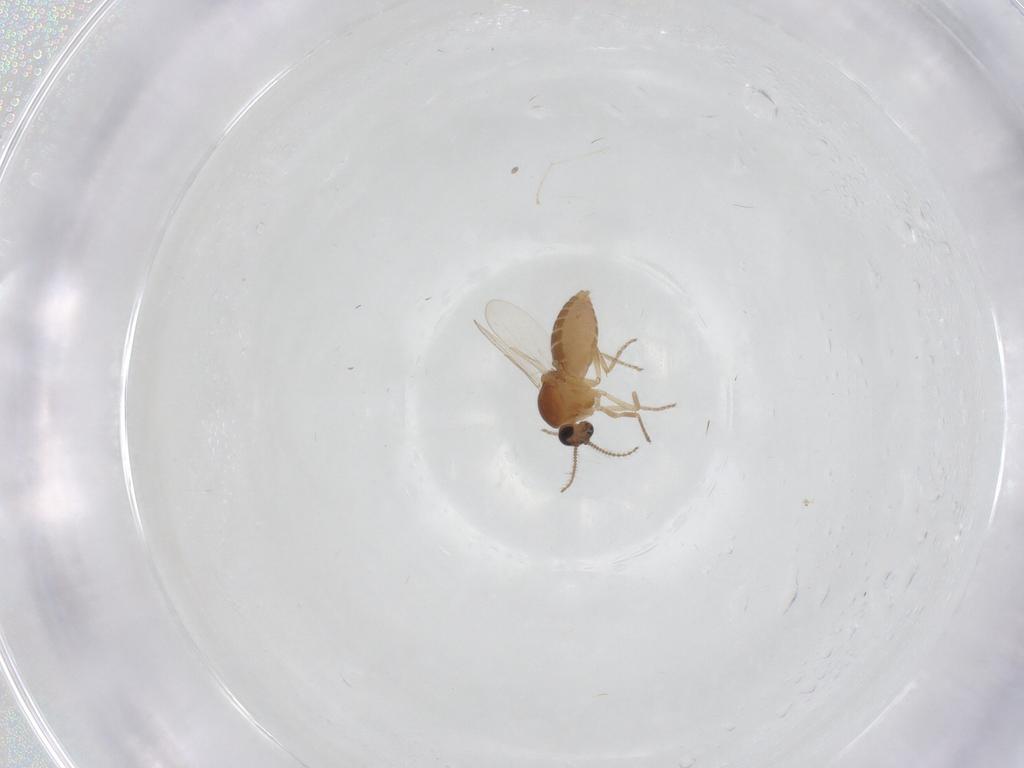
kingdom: Animalia
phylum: Arthropoda
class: Insecta
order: Diptera
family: Ceratopogonidae
